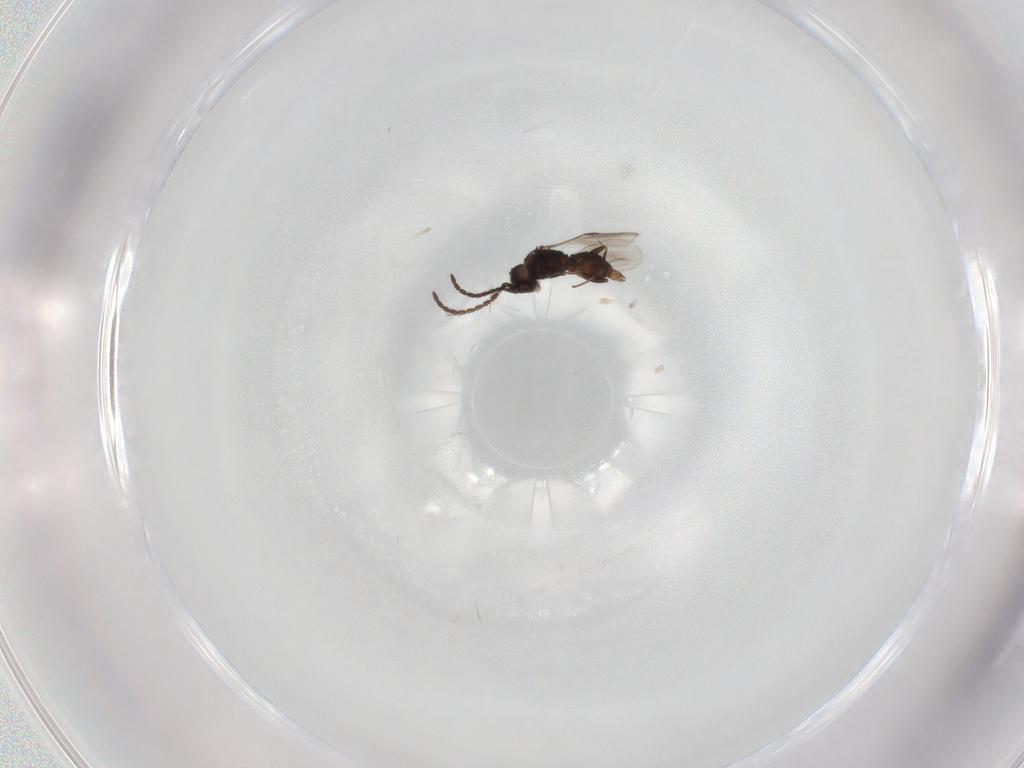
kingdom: Animalia
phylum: Arthropoda
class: Insecta
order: Hymenoptera
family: Megaspilidae
